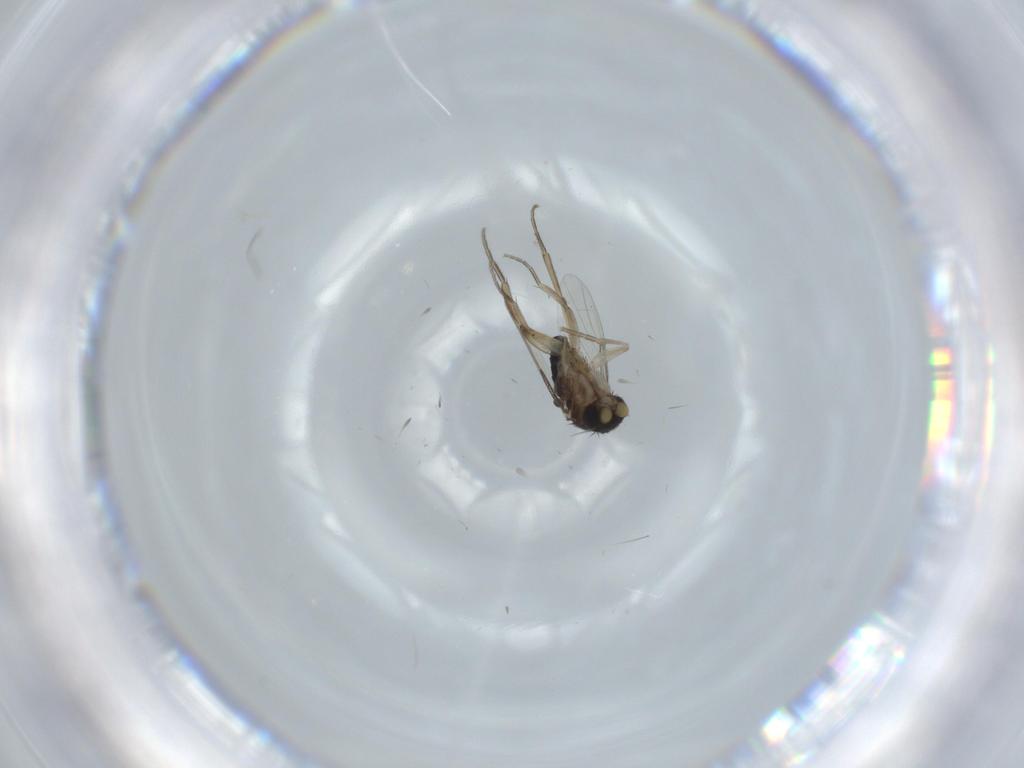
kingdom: Animalia
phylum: Arthropoda
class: Insecta
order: Diptera
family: Phoridae
